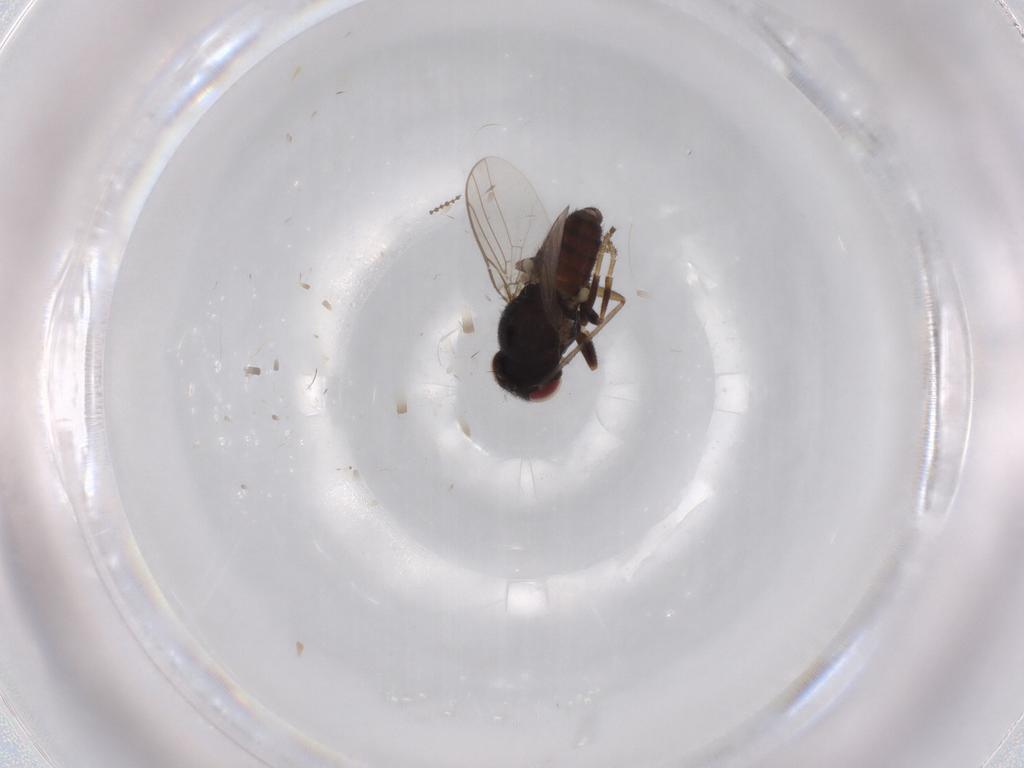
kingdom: Animalia
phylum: Arthropoda
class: Insecta
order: Diptera
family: Chloropidae
